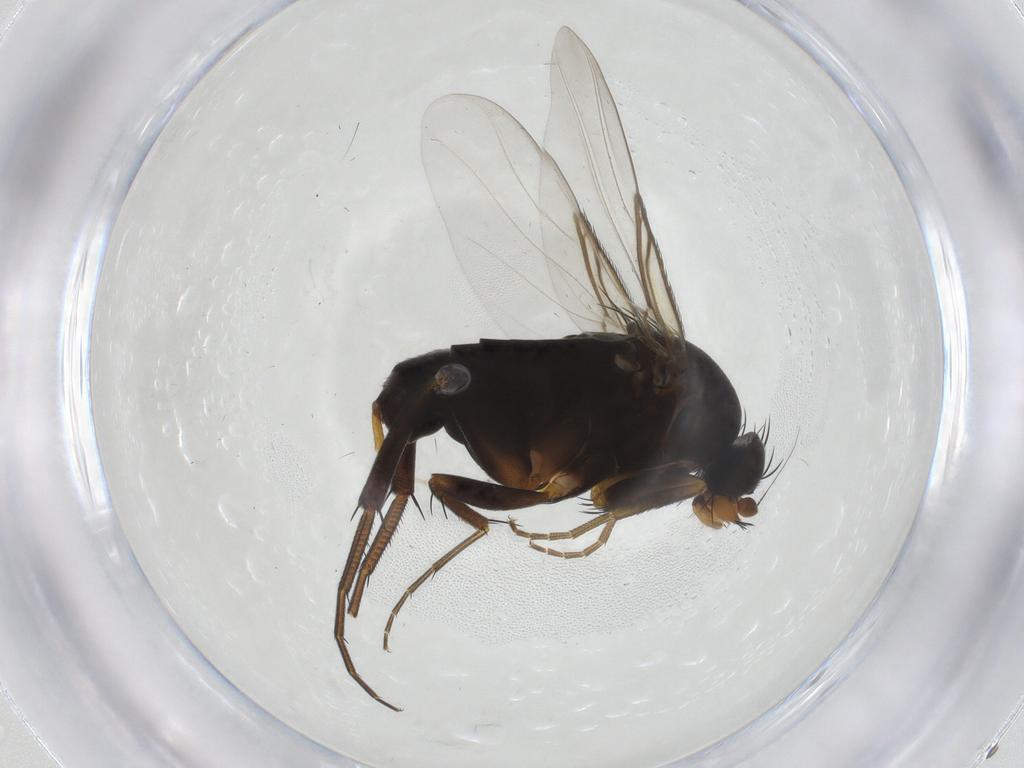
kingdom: Animalia
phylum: Arthropoda
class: Insecta
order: Diptera
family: Phoridae
